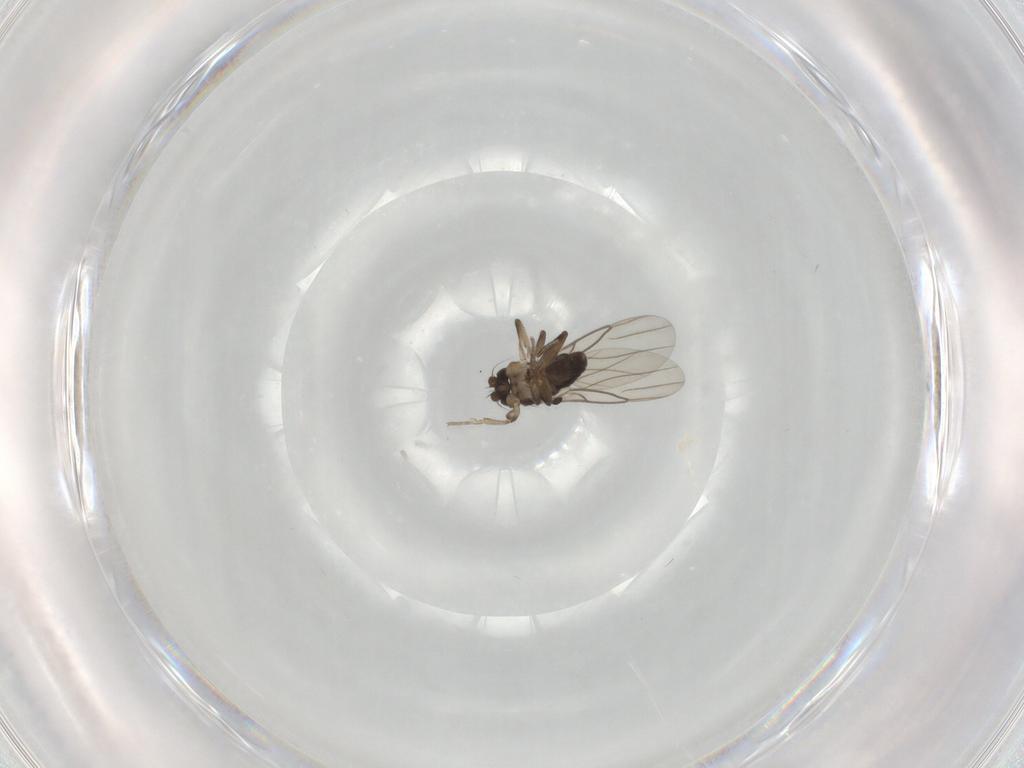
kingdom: Animalia
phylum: Arthropoda
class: Insecta
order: Diptera
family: Phoridae
